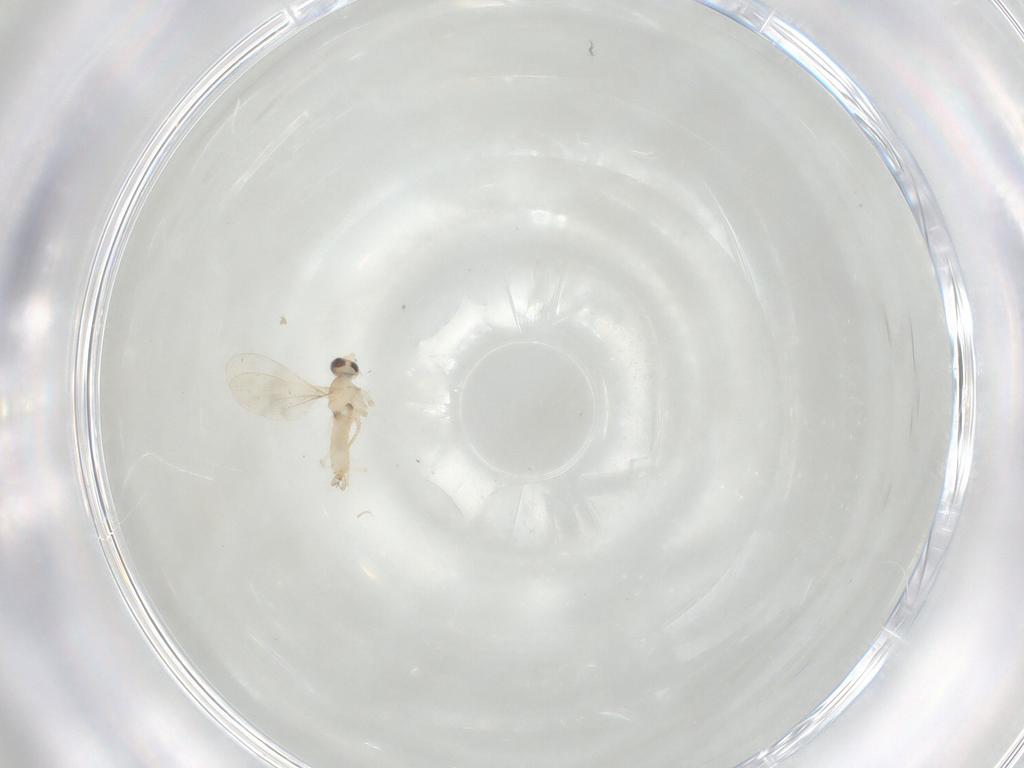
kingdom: Animalia
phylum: Arthropoda
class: Insecta
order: Diptera
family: Cecidomyiidae
